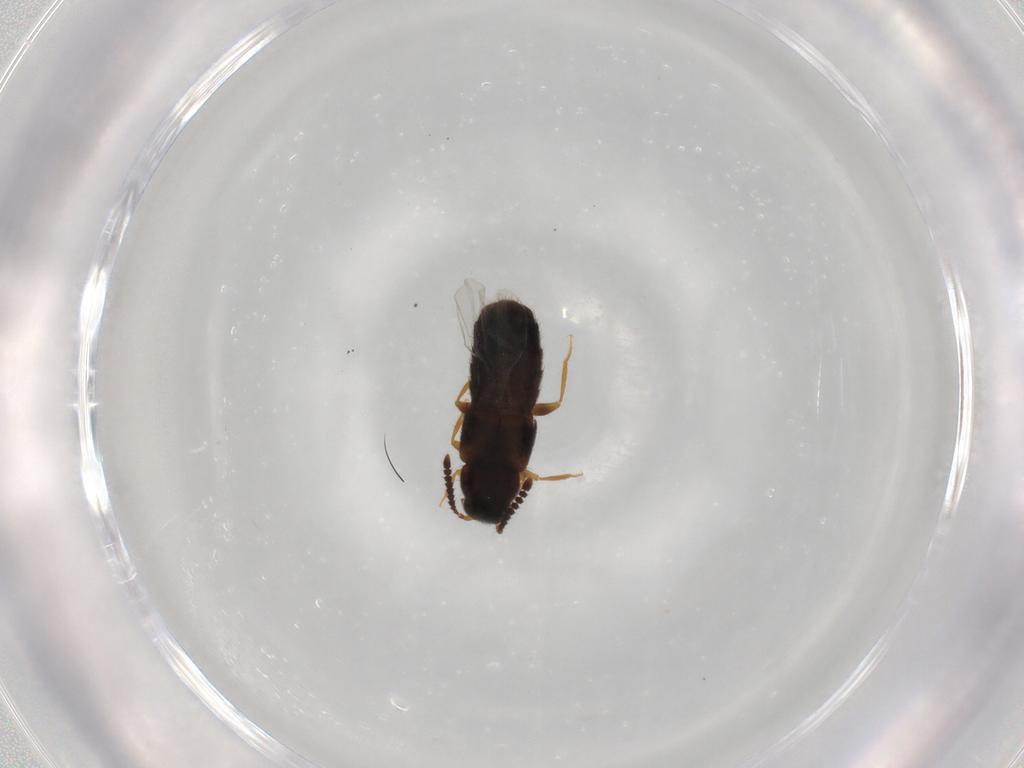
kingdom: Animalia
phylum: Arthropoda
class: Insecta
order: Coleoptera
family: Staphylinidae
